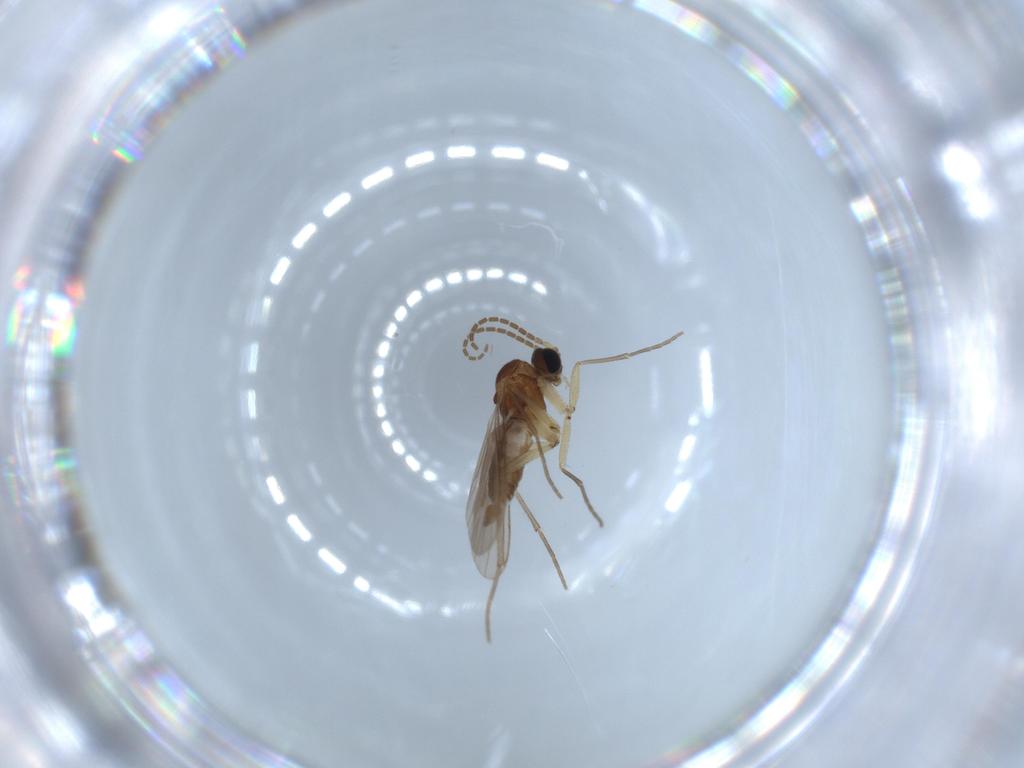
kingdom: Animalia
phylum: Arthropoda
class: Insecta
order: Diptera
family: Sciaridae
